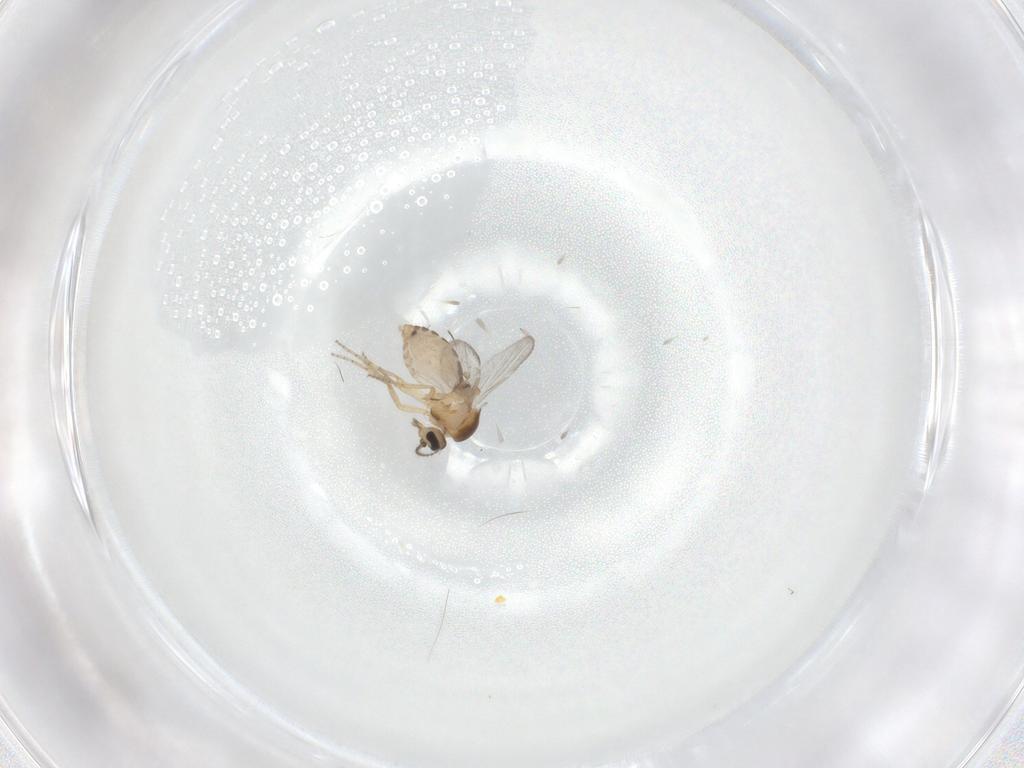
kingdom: Animalia
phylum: Arthropoda
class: Insecta
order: Diptera
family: Ceratopogonidae
